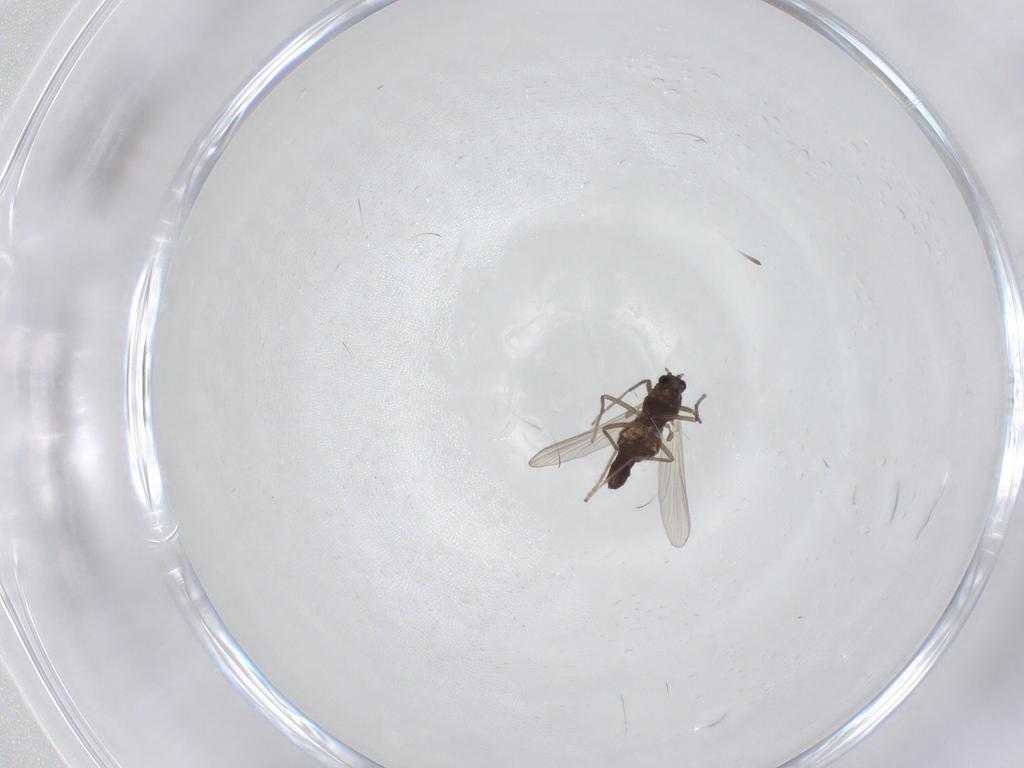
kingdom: Animalia
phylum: Arthropoda
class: Insecta
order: Diptera
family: Chironomidae
